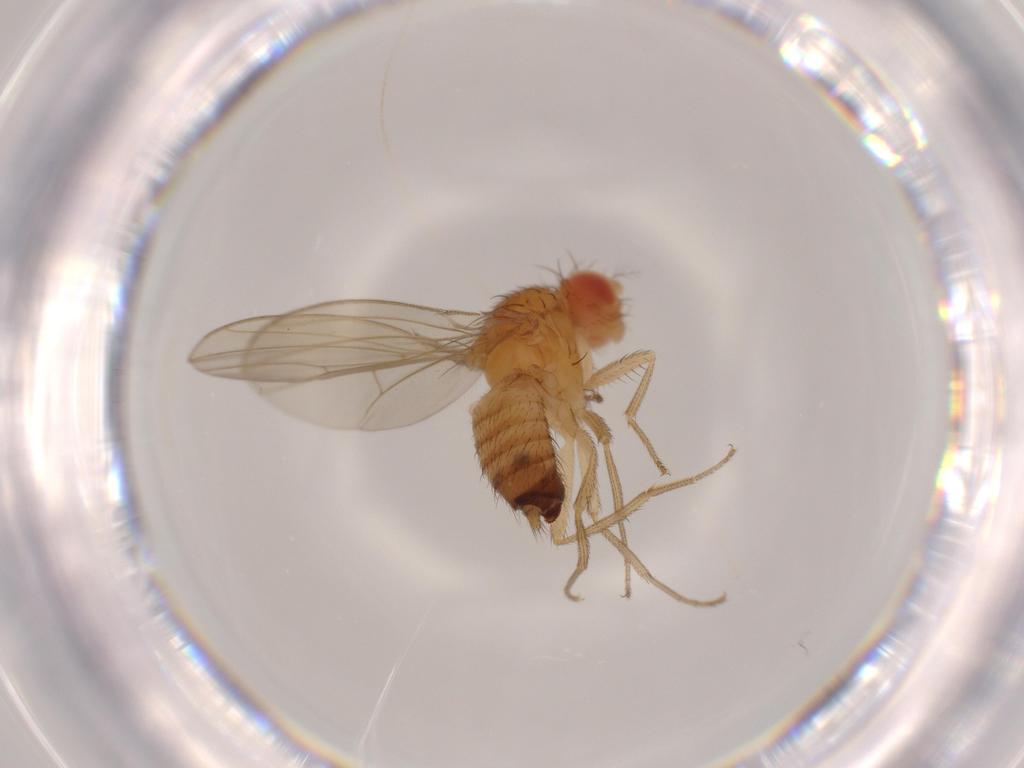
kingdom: Animalia
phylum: Arthropoda
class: Insecta
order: Diptera
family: Drosophilidae
